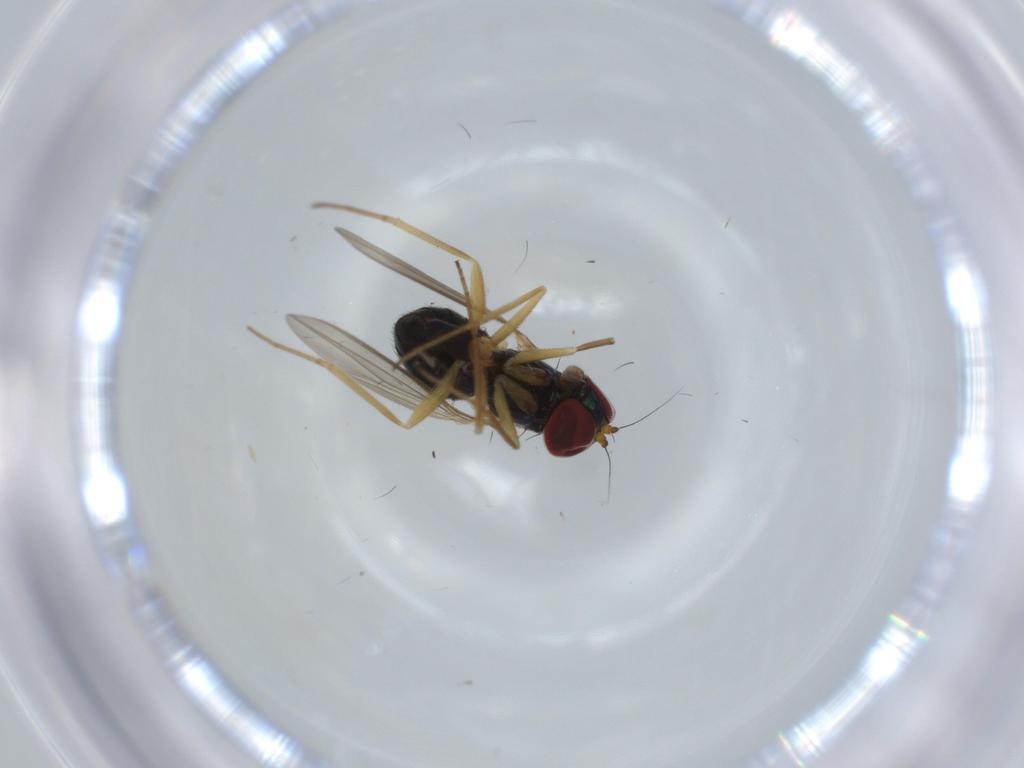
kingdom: Animalia
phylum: Arthropoda
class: Insecta
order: Diptera
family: Dolichopodidae
